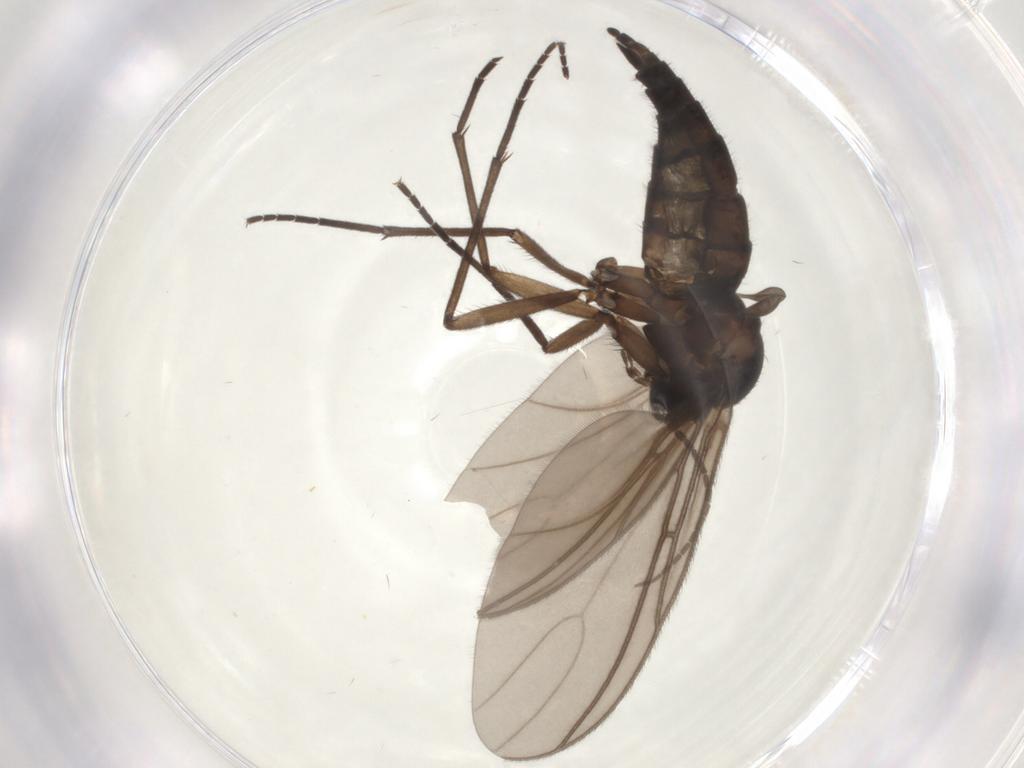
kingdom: Animalia
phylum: Arthropoda
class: Insecta
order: Diptera
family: Sciaridae
